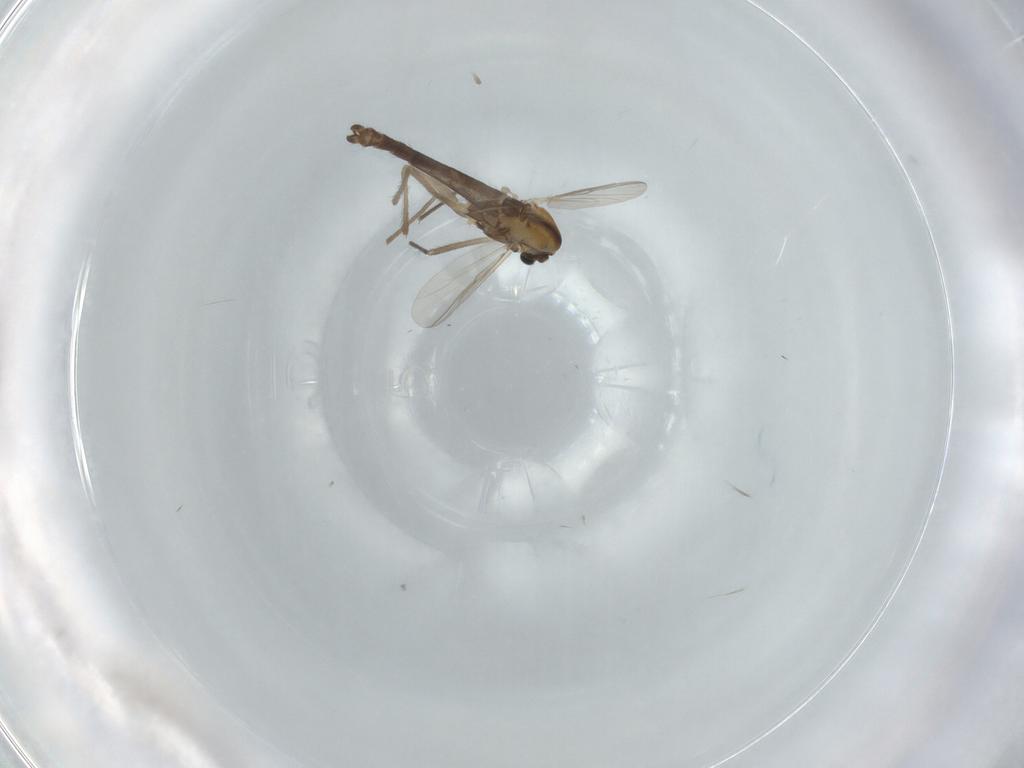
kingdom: Animalia
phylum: Arthropoda
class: Insecta
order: Diptera
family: Chironomidae
